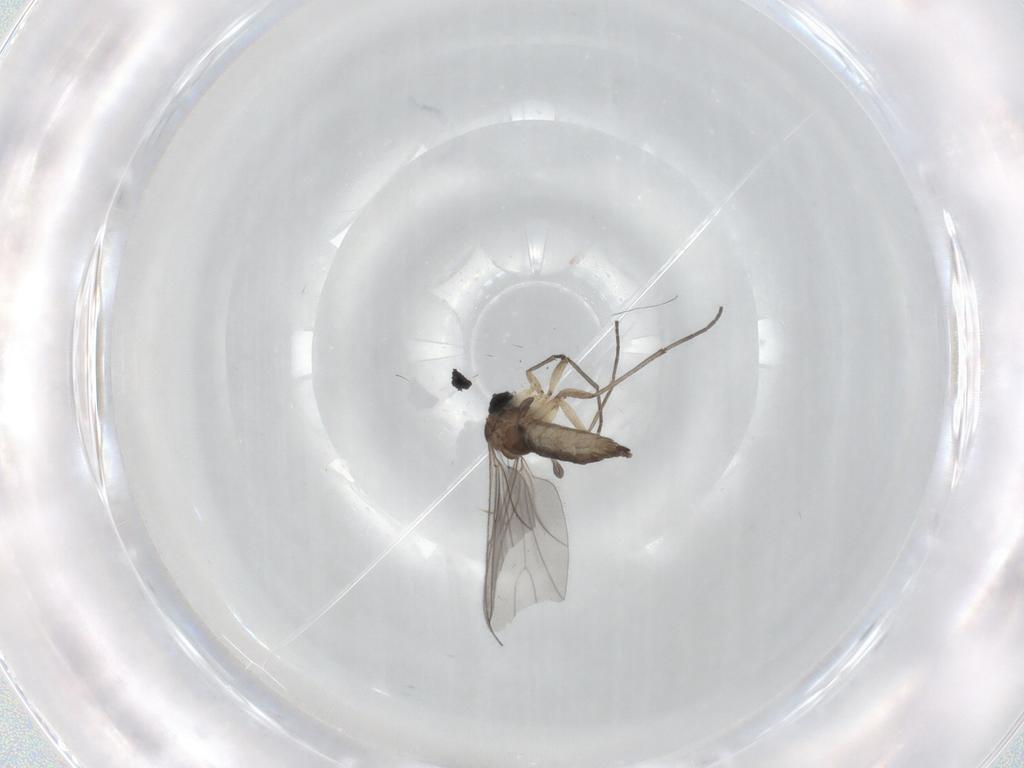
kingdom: Animalia
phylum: Arthropoda
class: Insecta
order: Diptera
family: Sciaridae
